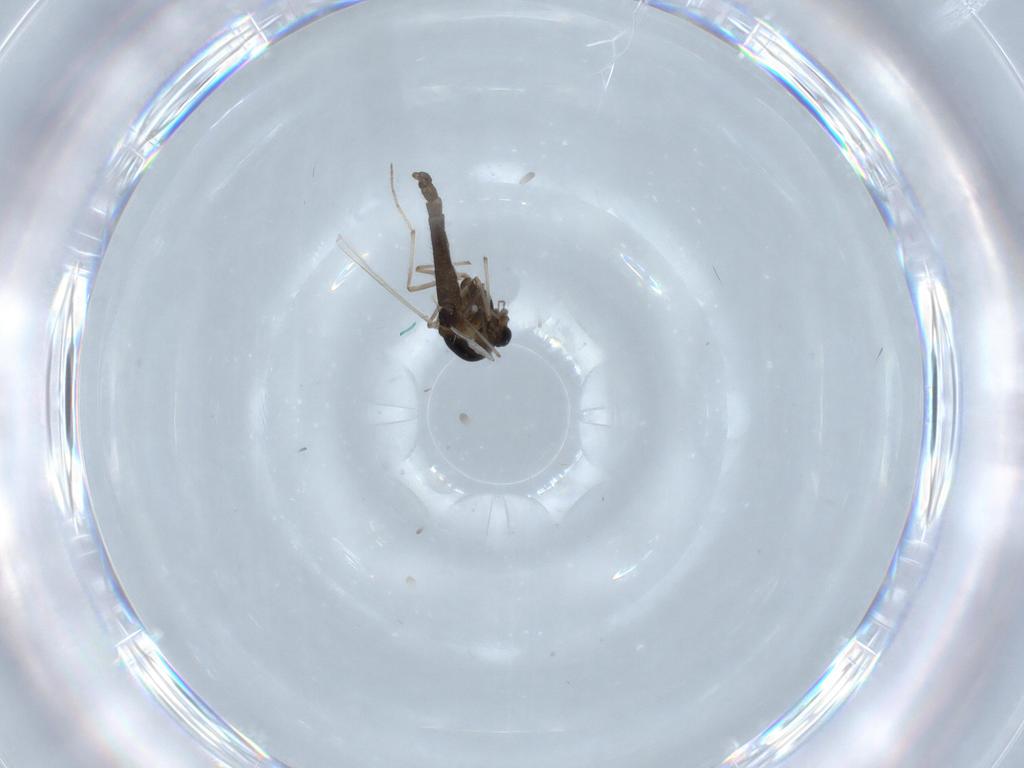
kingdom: Animalia
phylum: Arthropoda
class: Insecta
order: Diptera
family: Chironomidae
